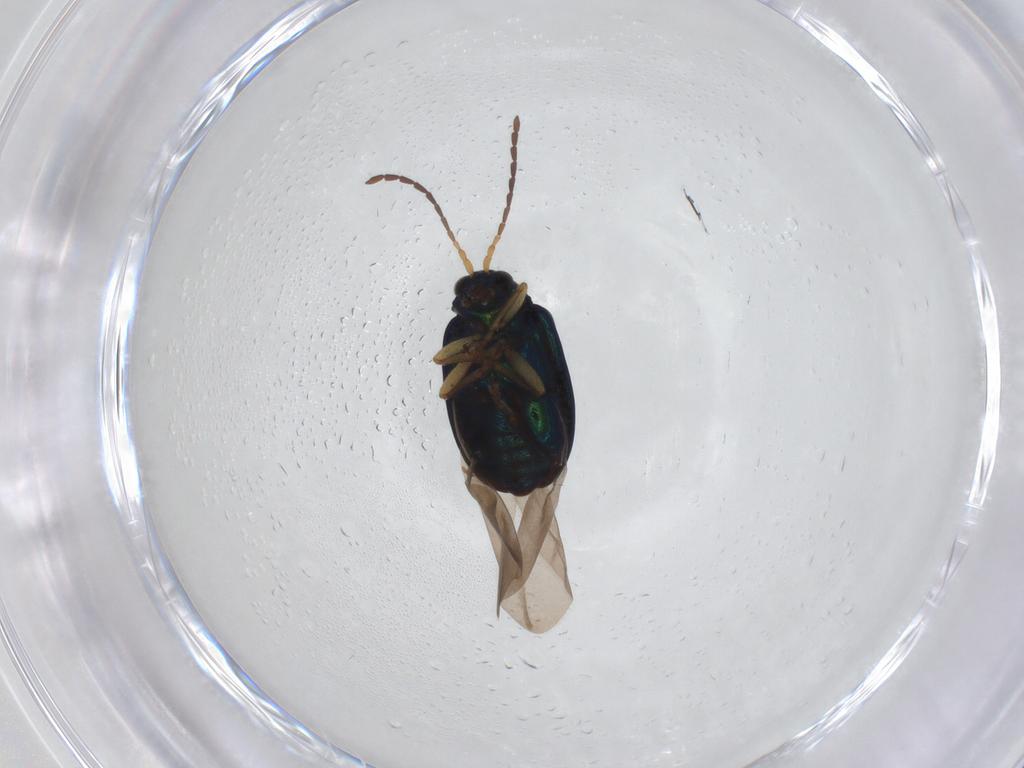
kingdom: Animalia
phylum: Arthropoda
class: Insecta
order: Coleoptera
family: Chrysomelidae
